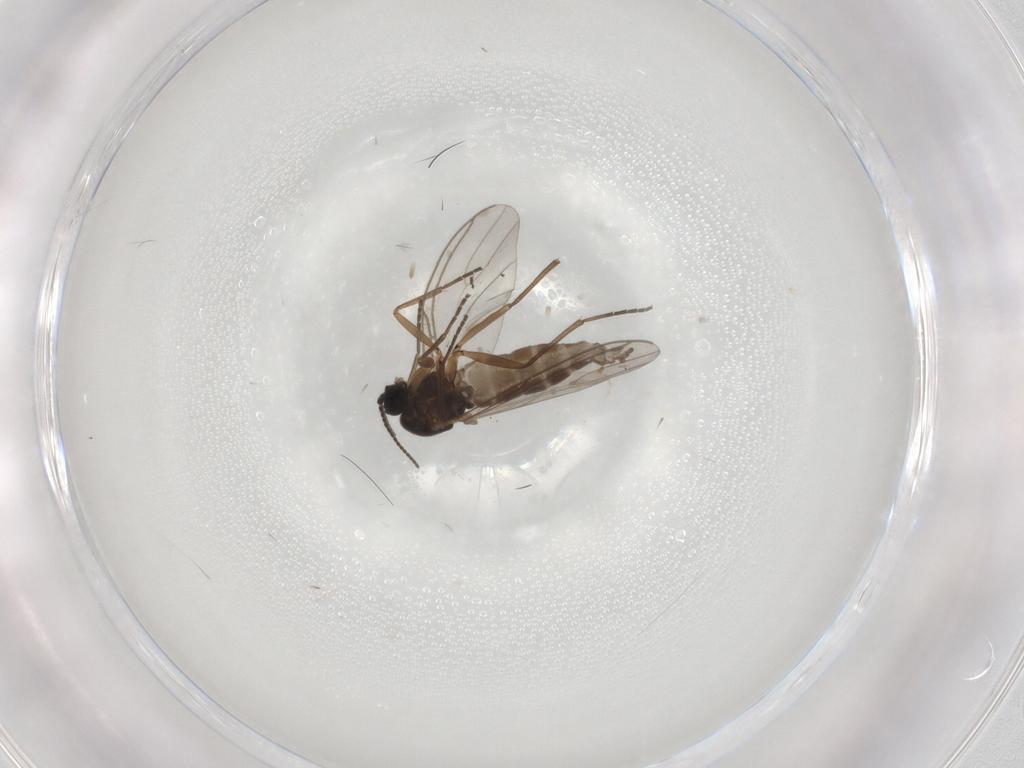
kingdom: Animalia
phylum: Arthropoda
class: Insecta
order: Diptera
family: Sciaridae
